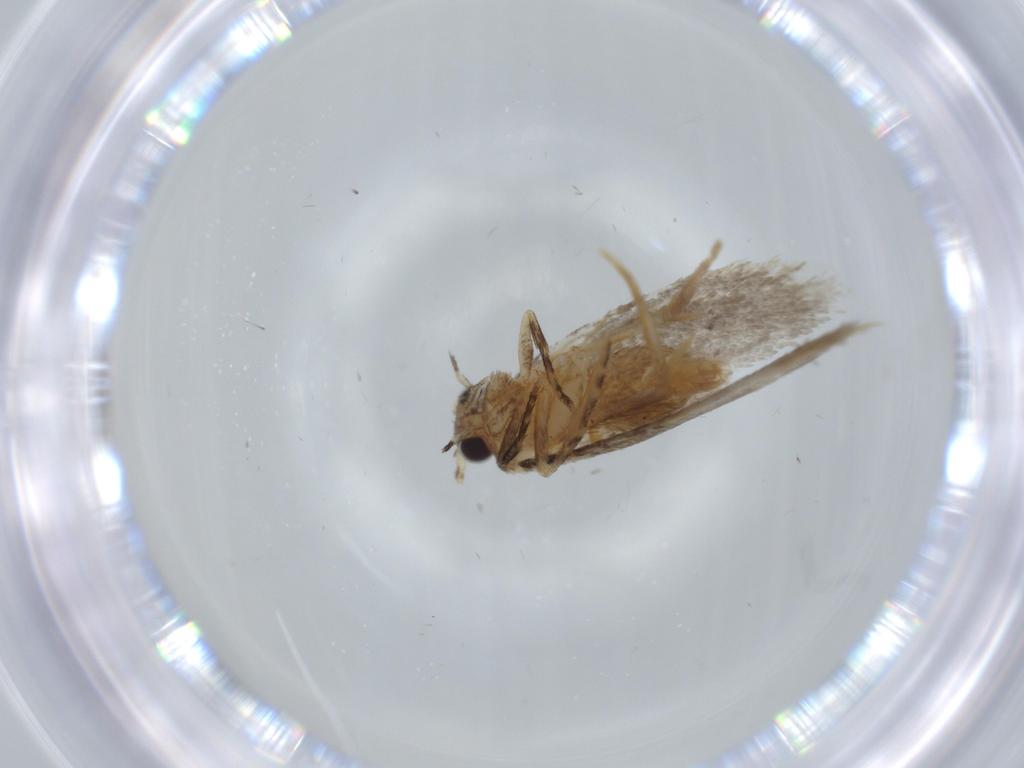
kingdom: Animalia
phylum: Arthropoda
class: Insecta
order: Lepidoptera
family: Tineidae
